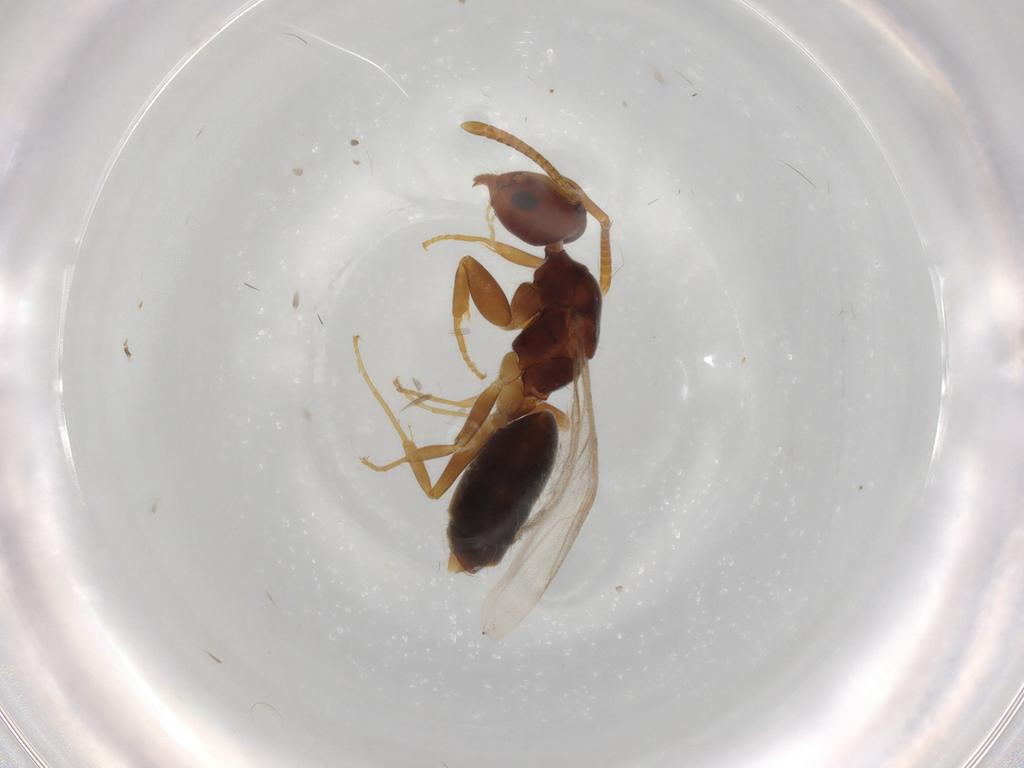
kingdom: Animalia
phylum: Arthropoda
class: Insecta
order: Hymenoptera
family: Formicidae
